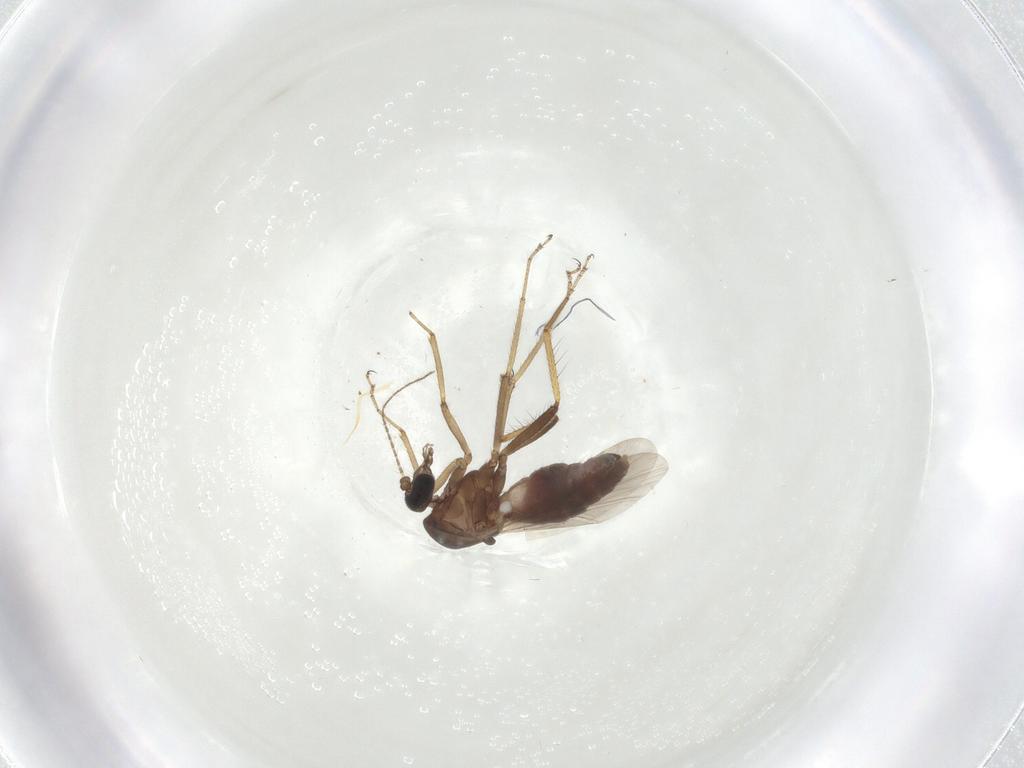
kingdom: Animalia
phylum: Arthropoda
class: Insecta
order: Diptera
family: Ceratopogonidae
